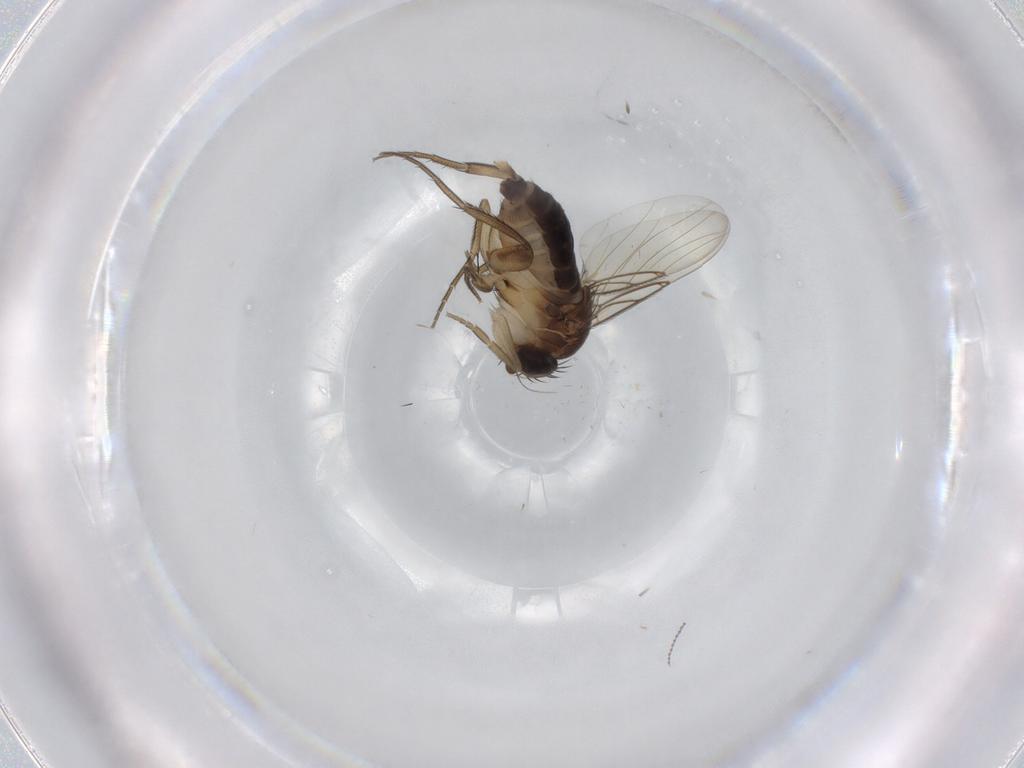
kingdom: Animalia
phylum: Arthropoda
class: Insecta
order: Diptera
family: Phoridae
